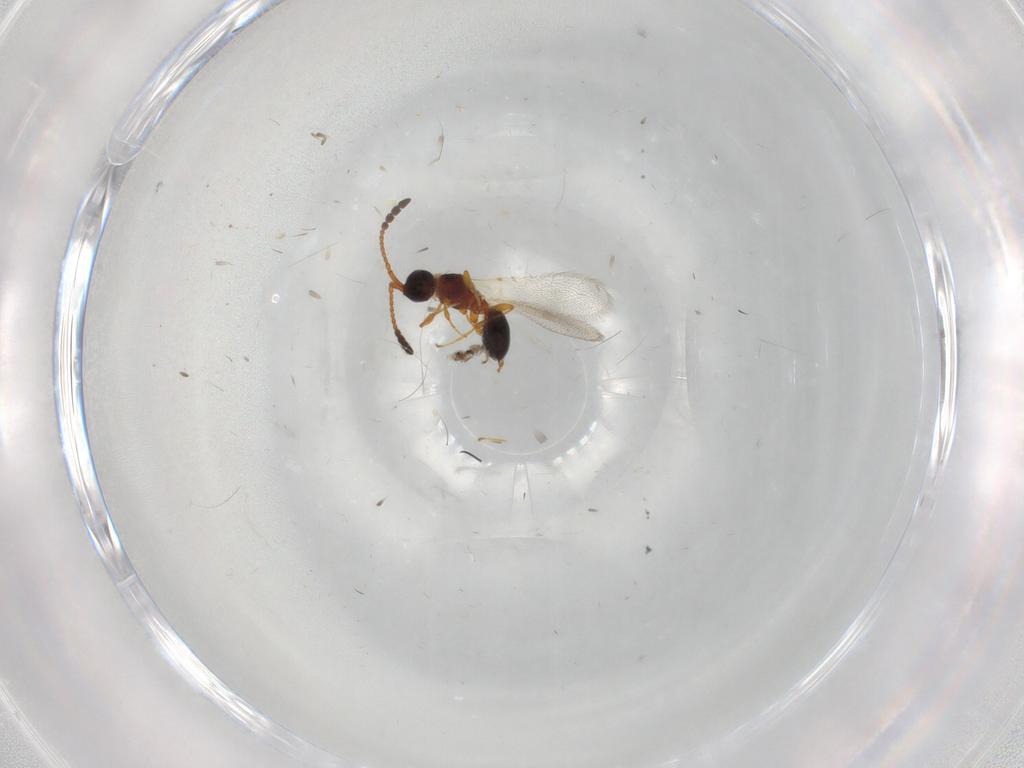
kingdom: Animalia
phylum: Arthropoda
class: Insecta
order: Hymenoptera
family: Diapriidae
